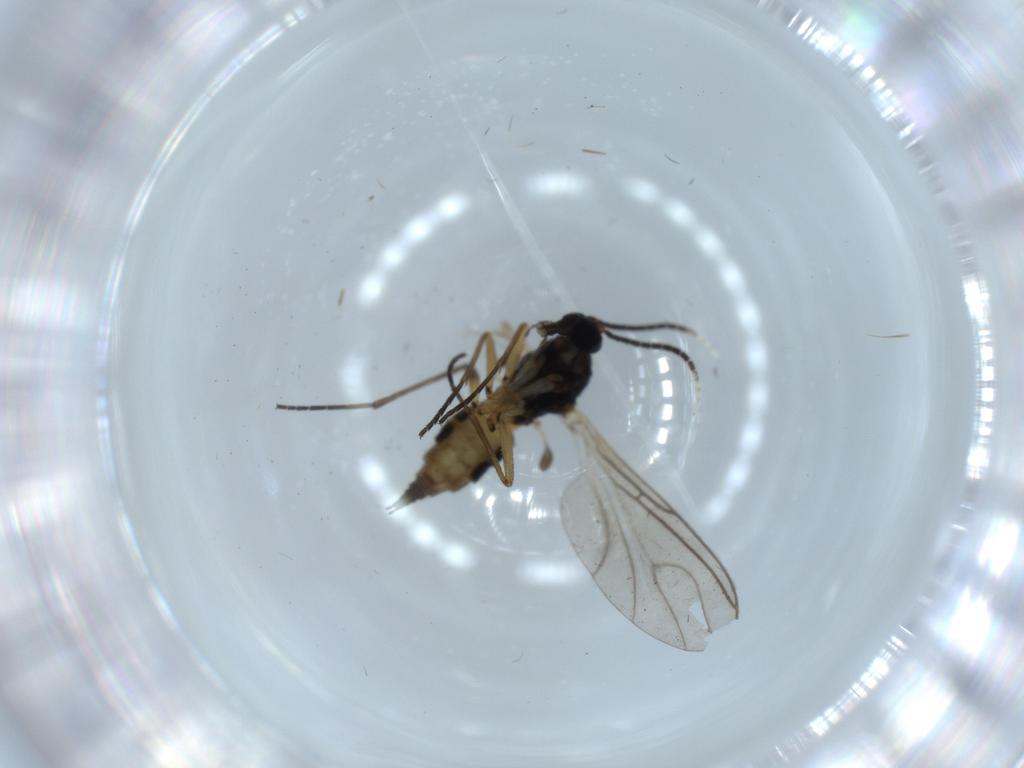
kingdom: Animalia
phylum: Arthropoda
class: Insecta
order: Diptera
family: Sciaridae
